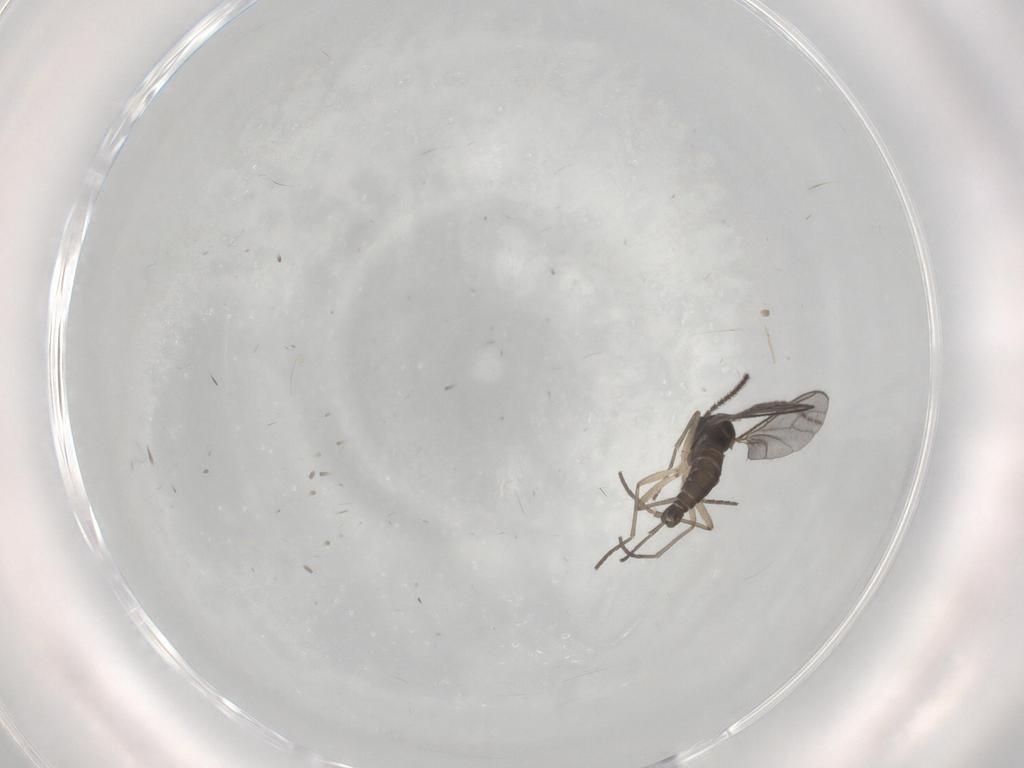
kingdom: Animalia
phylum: Arthropoda
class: Insecta
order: Diptera
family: Sciaridae
